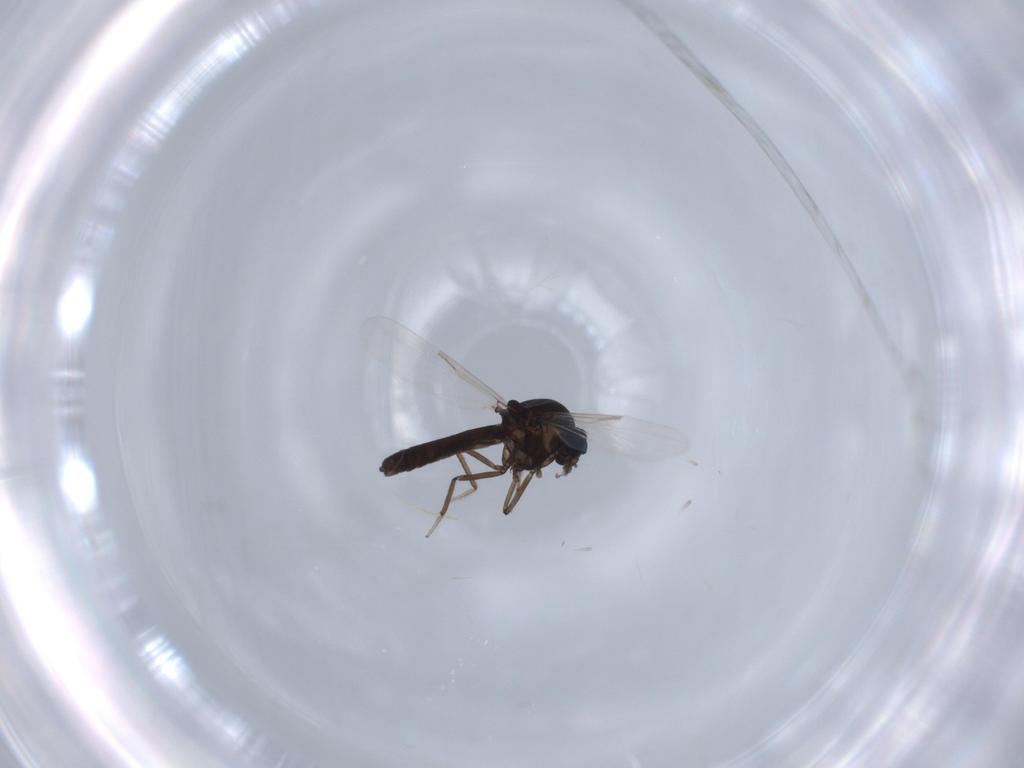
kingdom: Animalia
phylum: Arthropoda
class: Insecta
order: Diptera
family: Ceratopogonidae
